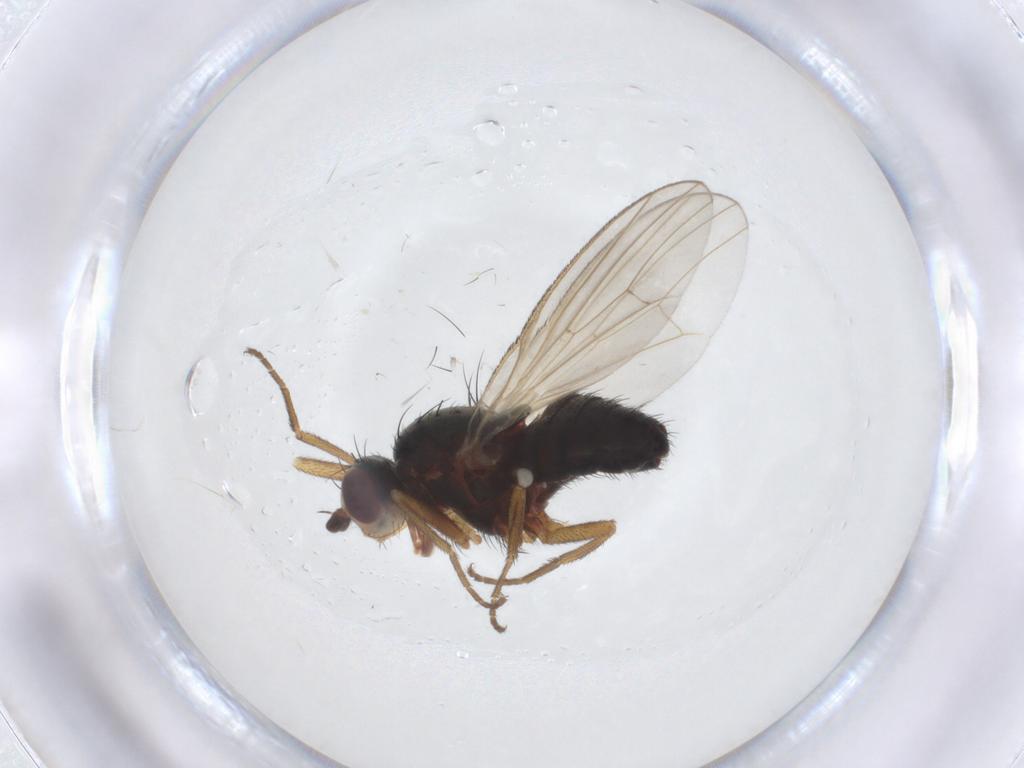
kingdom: Animalia
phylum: Arthropoda
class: Insecta
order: Diptera
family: Heleomyzidae
